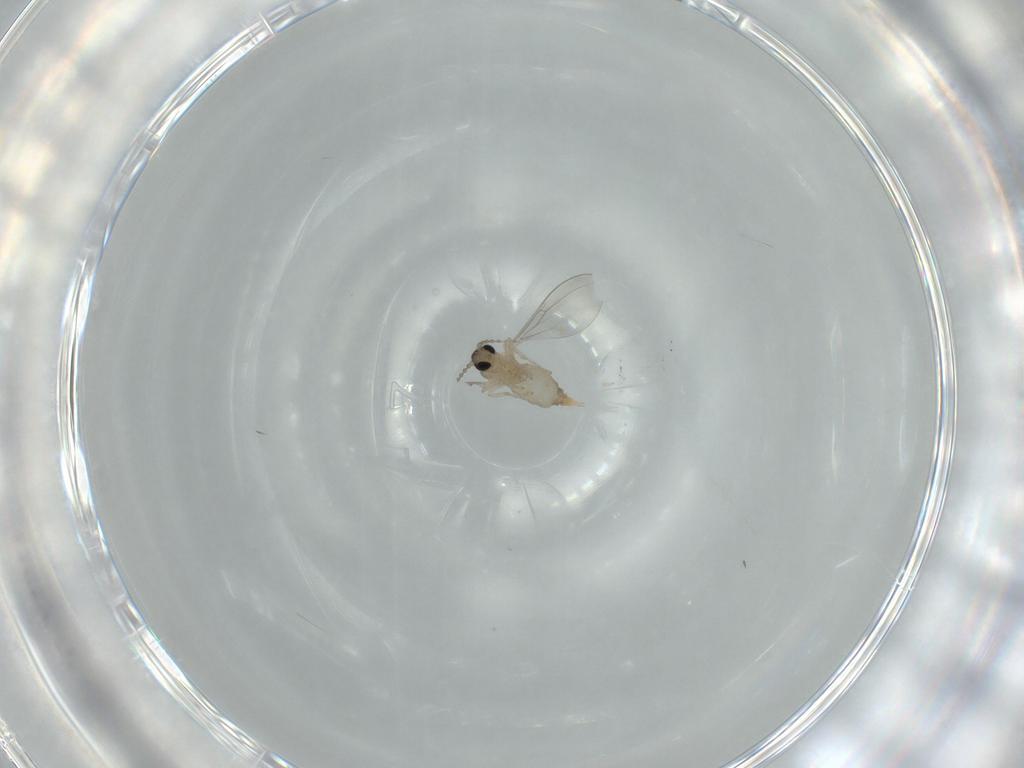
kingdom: Animalia
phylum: Arthropoda
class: Insecta
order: Diptera
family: Cecidomyiidae
